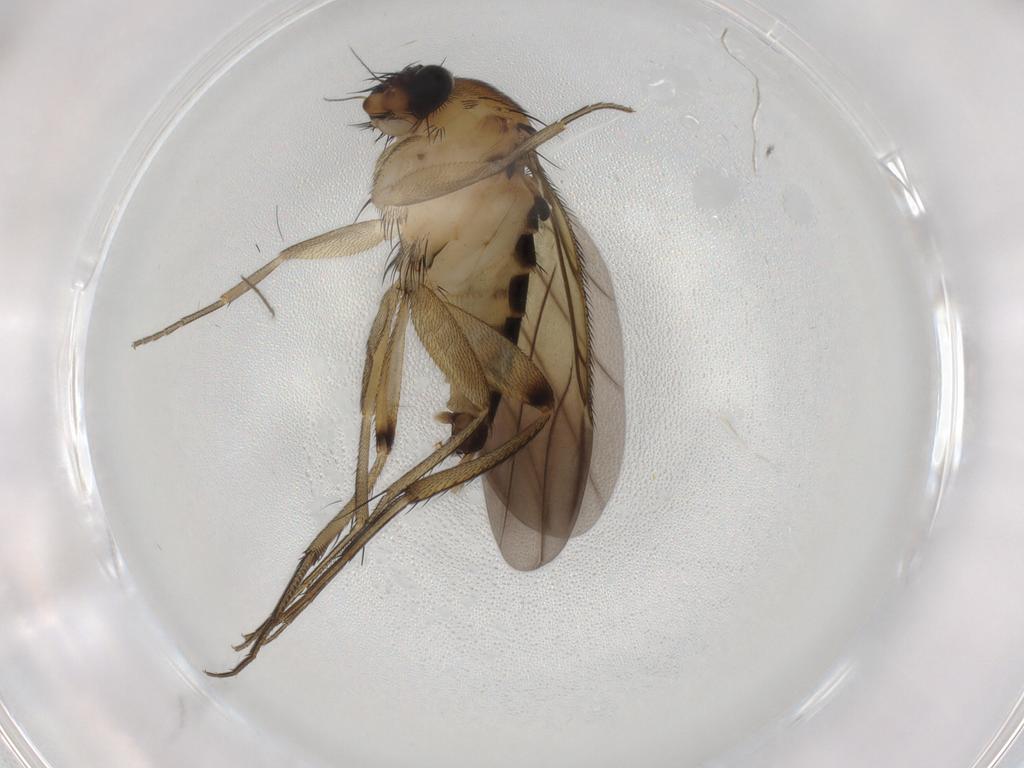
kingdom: Animalia
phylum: Arthropoda
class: Insecta
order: Diptera
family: Phoridae
